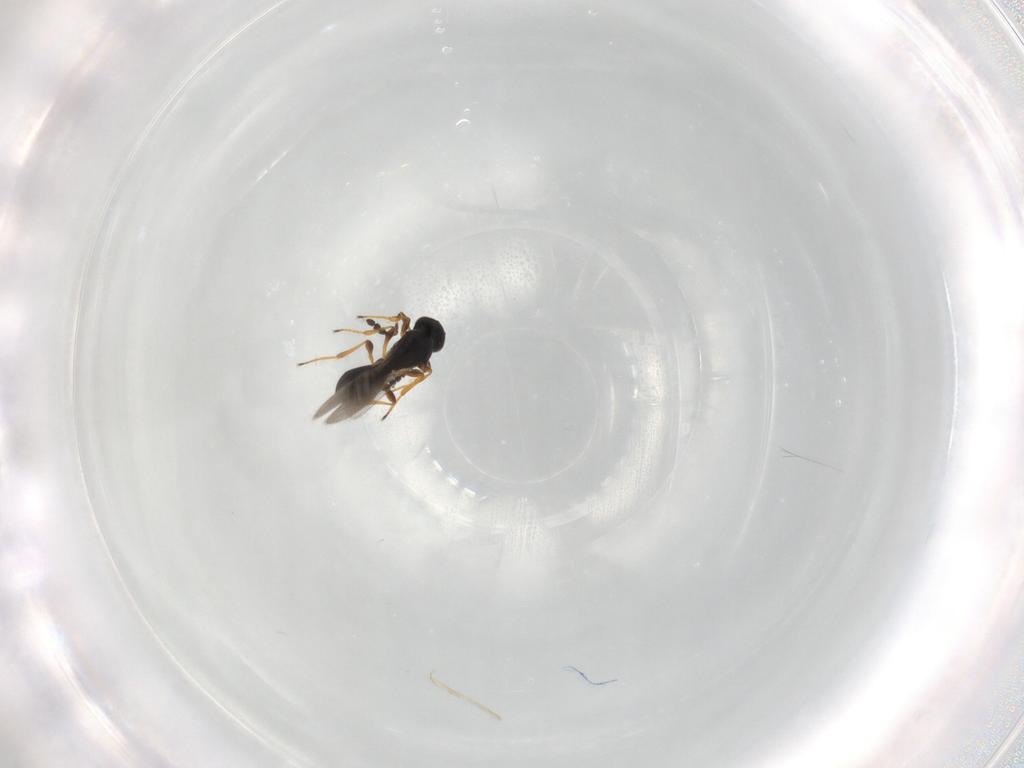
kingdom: Animalia
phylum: Arthropoda
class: Insecta
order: Hymenoptera
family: Platygastridae
